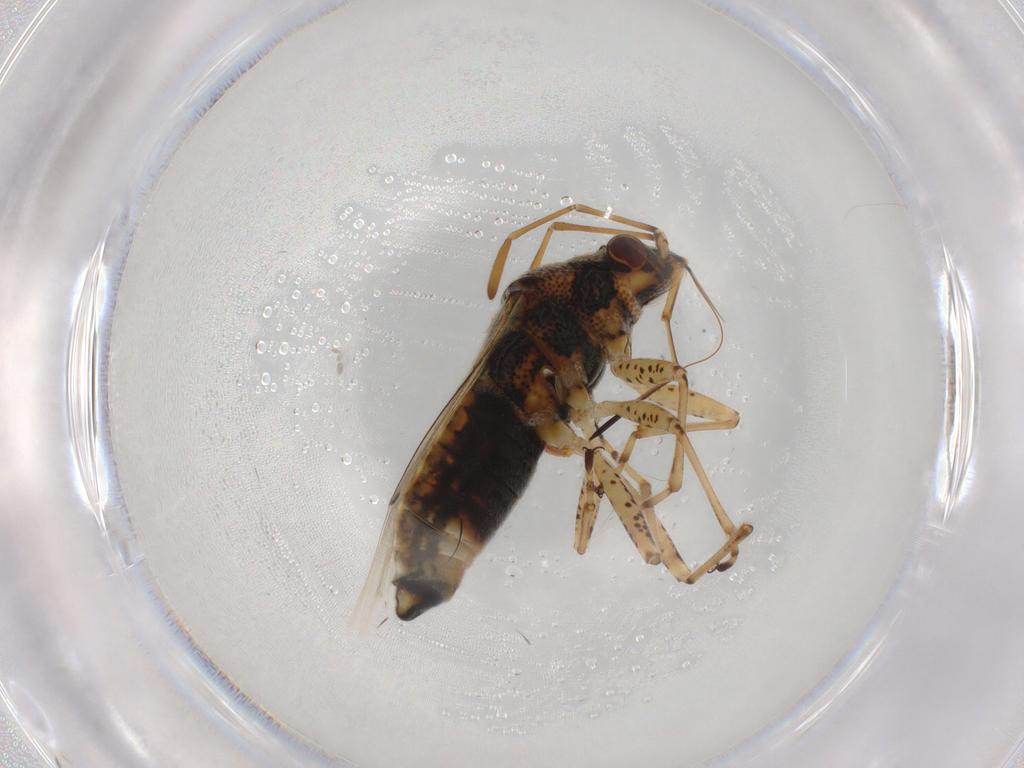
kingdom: Animalia
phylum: Arthropoda
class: Insecta
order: Hemiptera
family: Lygaeidae
